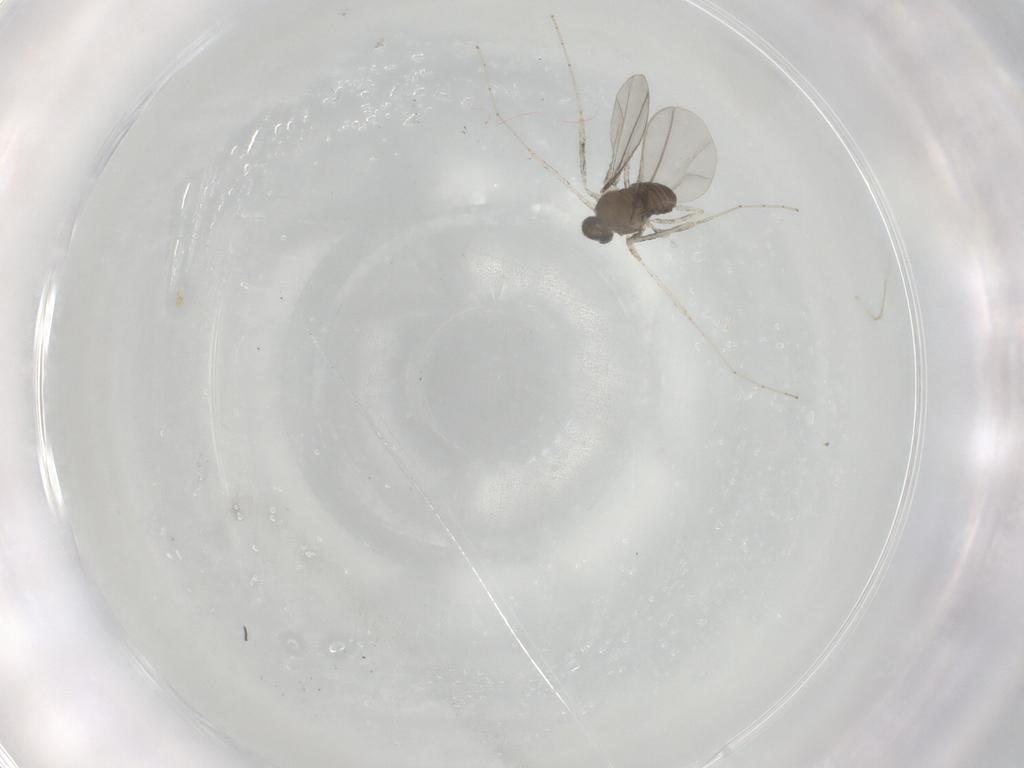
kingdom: Animalia
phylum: Arthropoda
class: Insecta
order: Diptera
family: Cecidomyiidae
